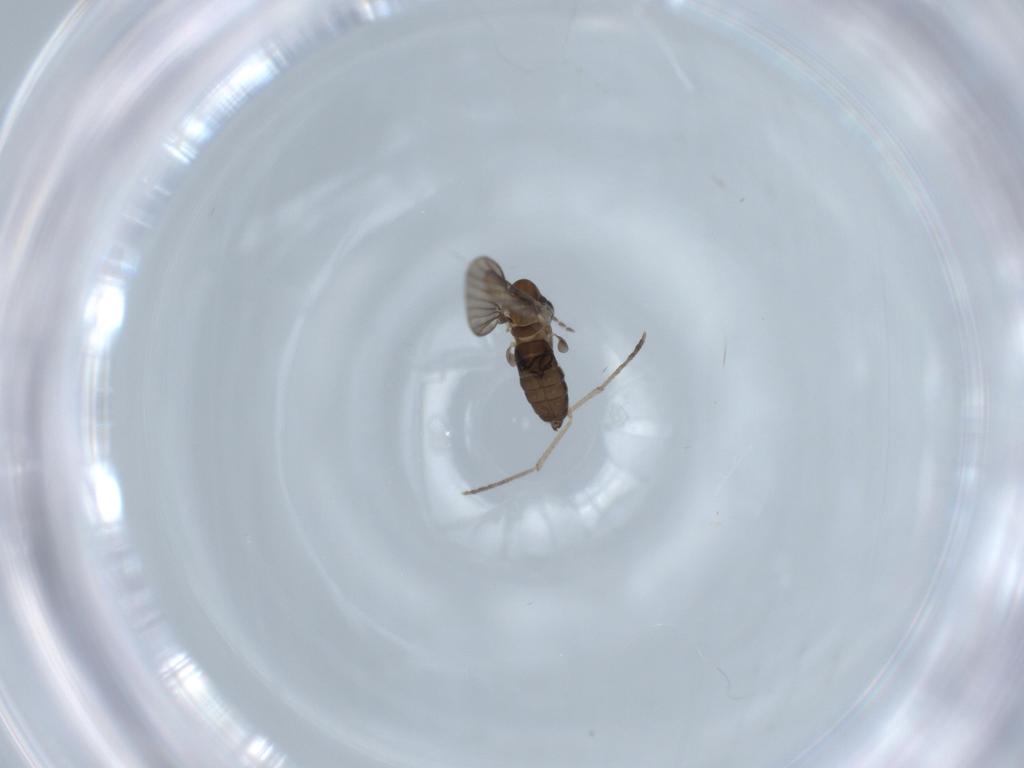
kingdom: Animalia
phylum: Arthropoda
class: Insecta
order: Diptera
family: Psychodidae
